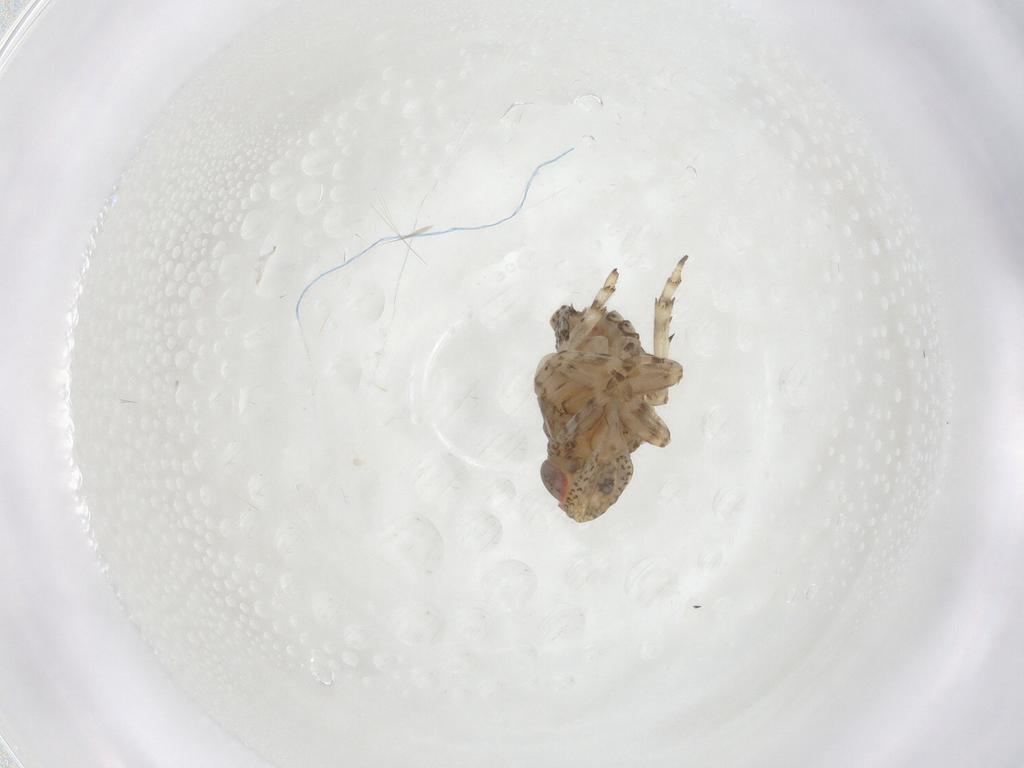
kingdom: Animalia
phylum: Arthropoda
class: Insecta
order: Hemiptera
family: Issidae
